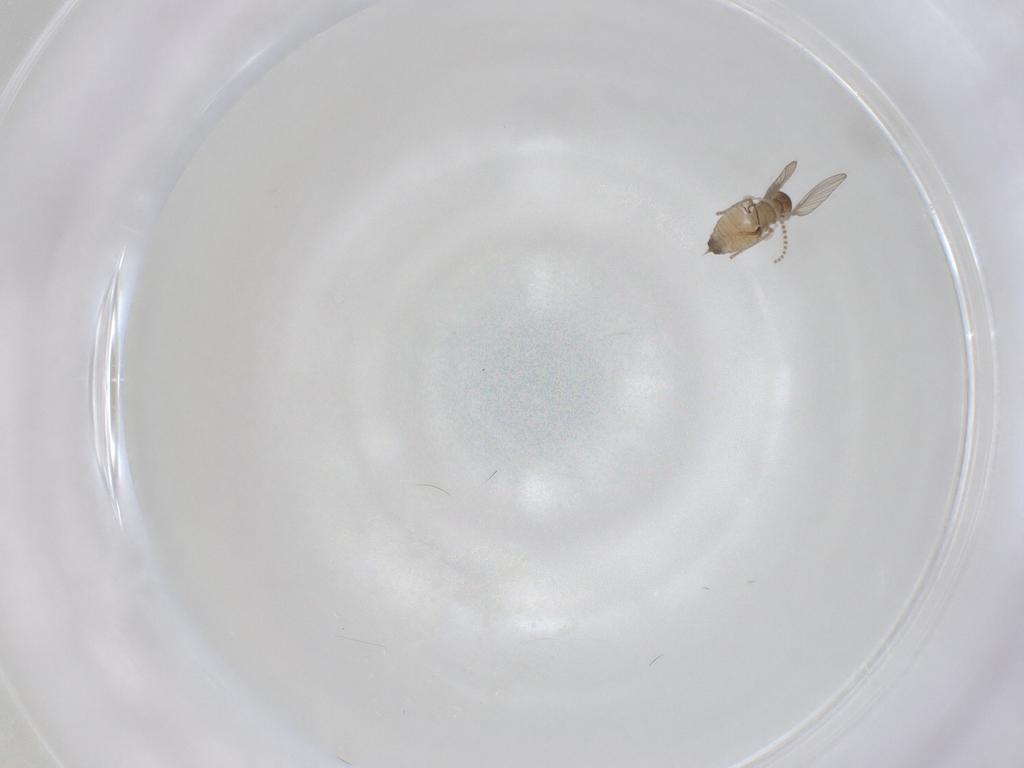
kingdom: Animalia
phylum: Arthropoda
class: Insecta
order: Diptera
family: Psychodidae
